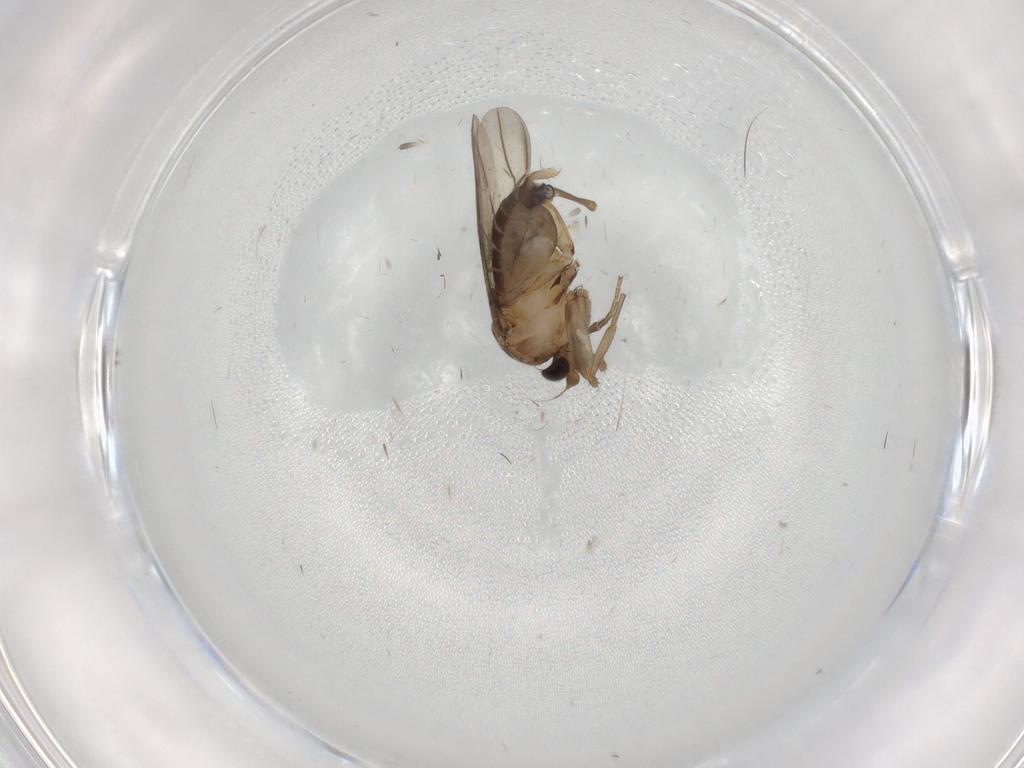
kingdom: Animalia
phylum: Arthropoda
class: Insecta
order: Diptera
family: Phoridae
